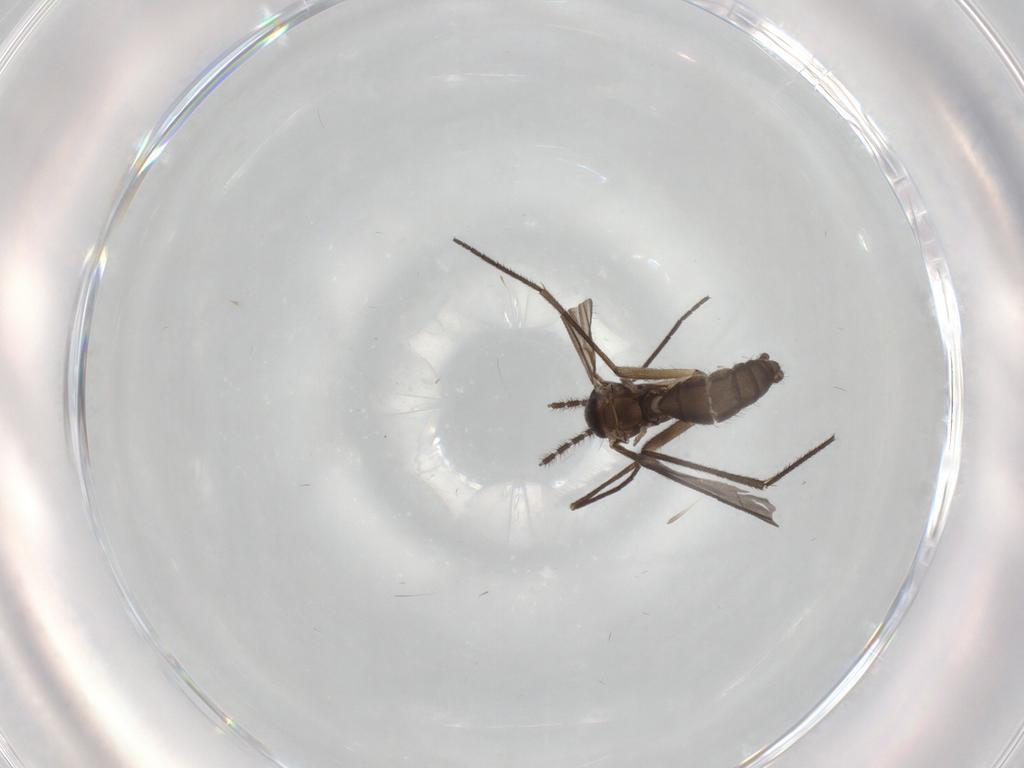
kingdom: Animalia
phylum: Arthropoda
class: Insecta
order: Diptera
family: Sciaridae
